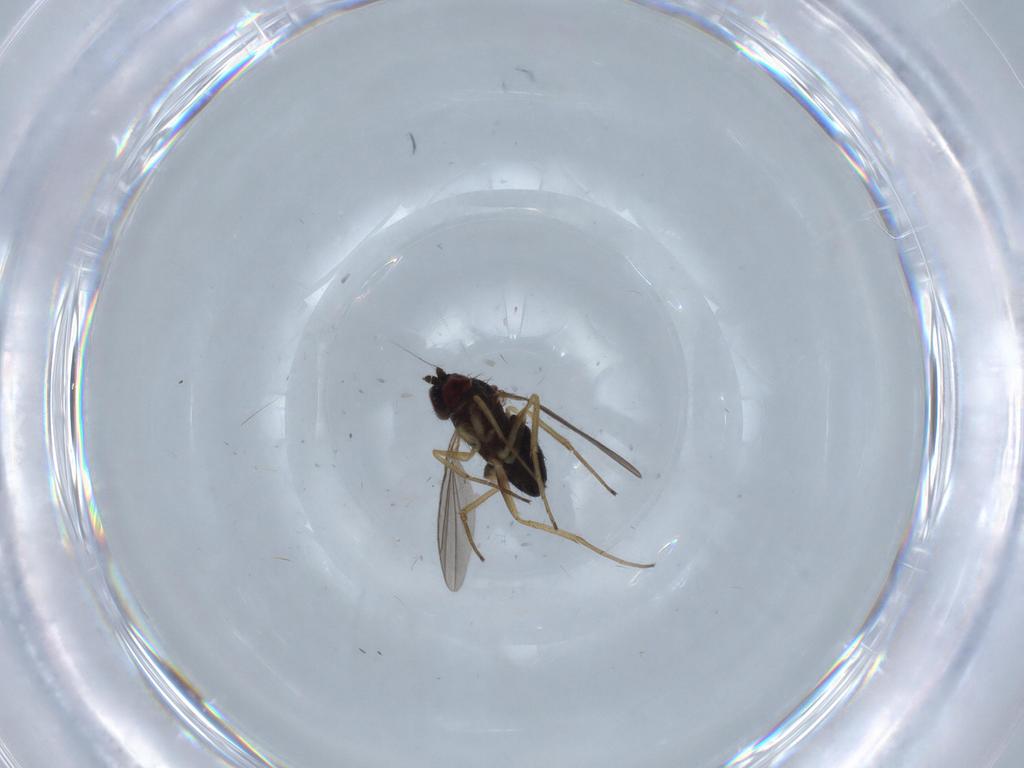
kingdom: Animalia
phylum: Arthropoda
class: Insecta
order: Diptera
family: Dolichopodidae
